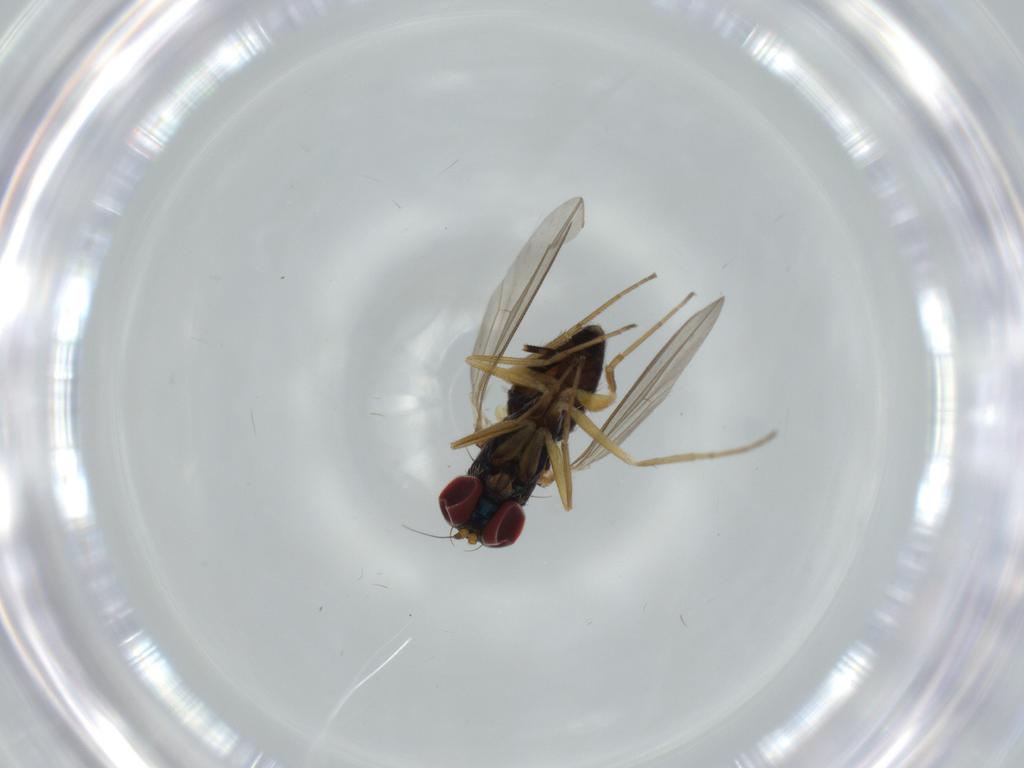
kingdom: Animalia
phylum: Arthropoda
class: Insecta
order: Diptera
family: Dolichopodidae
